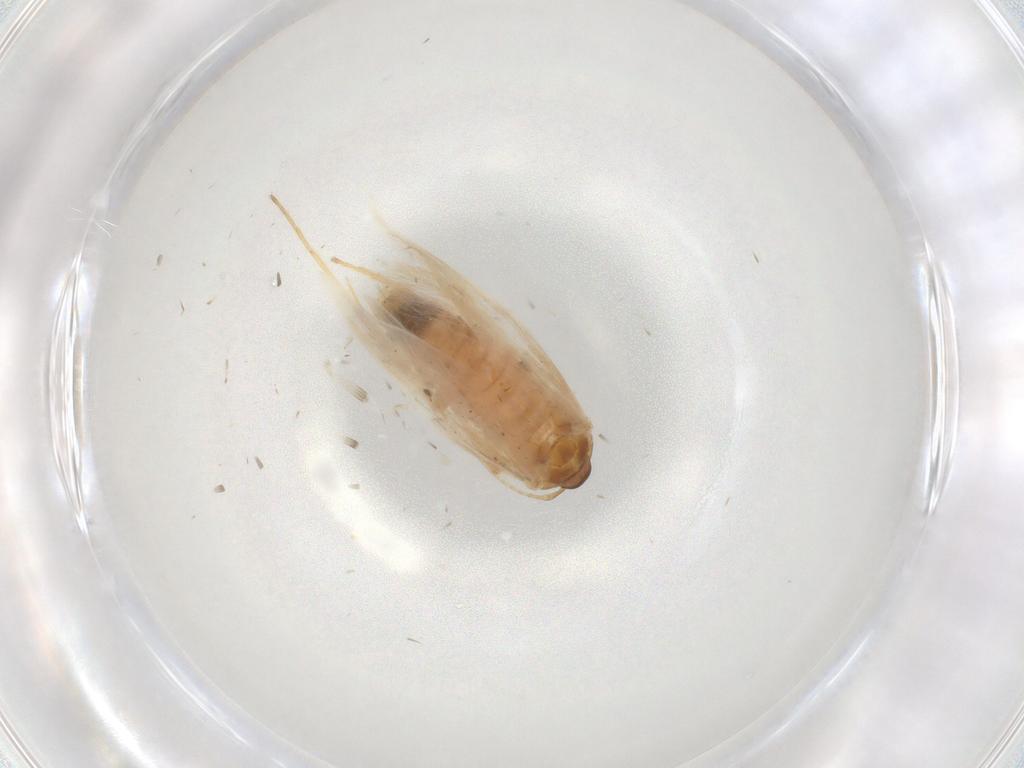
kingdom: Animalia
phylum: Arthropoda
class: Insecta
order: Lepidoptera
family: Gelechiidae
